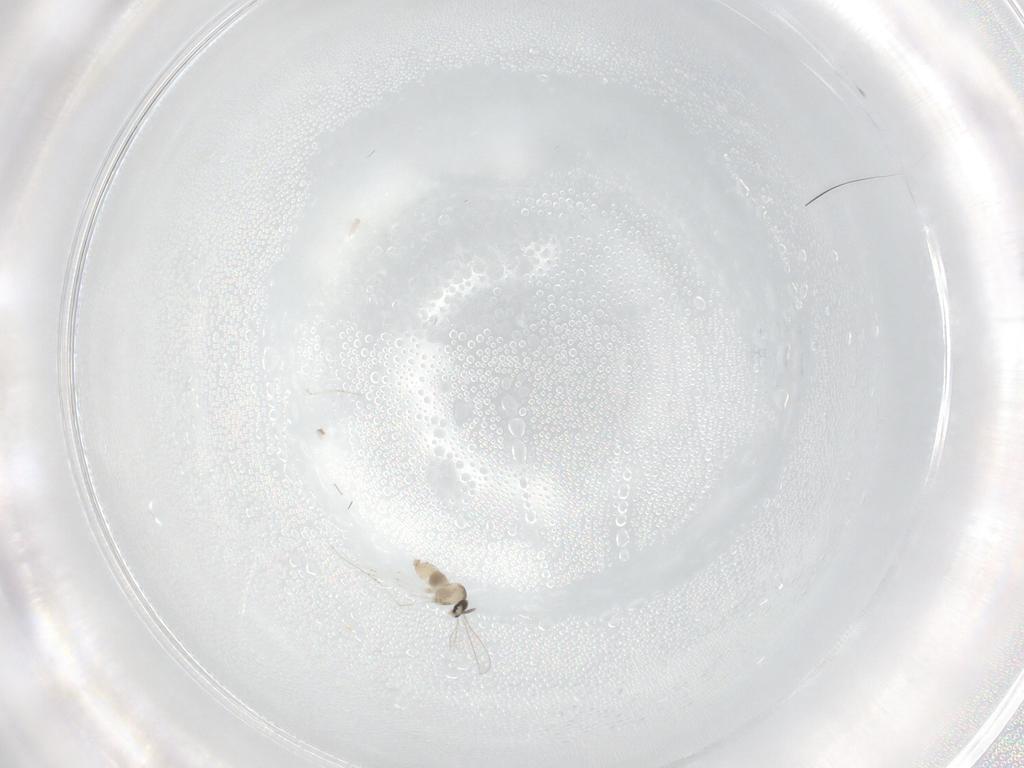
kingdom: Animalia
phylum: Arthropoda
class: Insecta
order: Diptera
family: Cecidomyiidae
